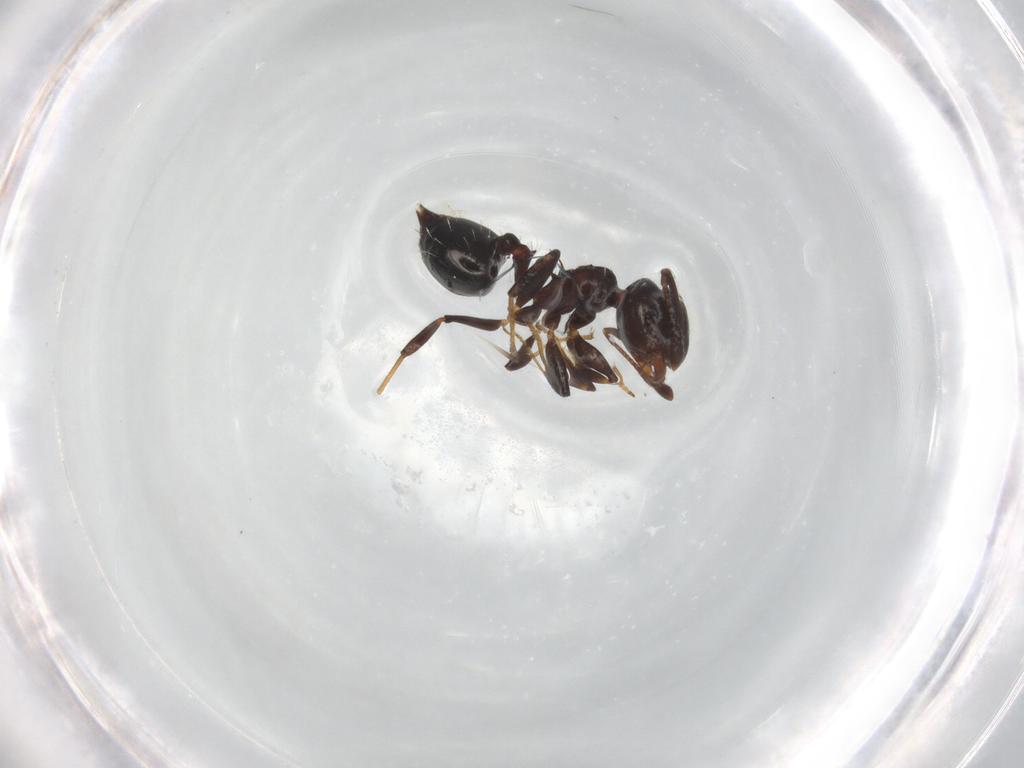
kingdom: Animalia
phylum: Arthropoda
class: Insecta
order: Hymenoptera
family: Formicidae
